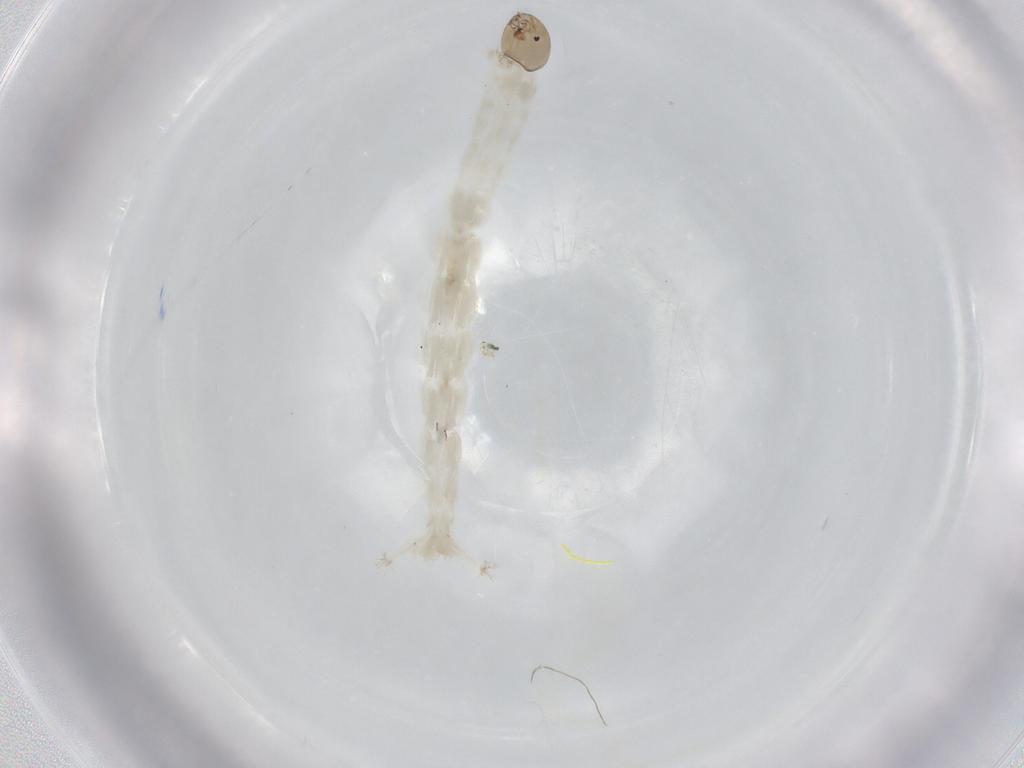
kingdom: Animalia
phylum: Arthropoda
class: Insecta
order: Diptera
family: Chironomidae
